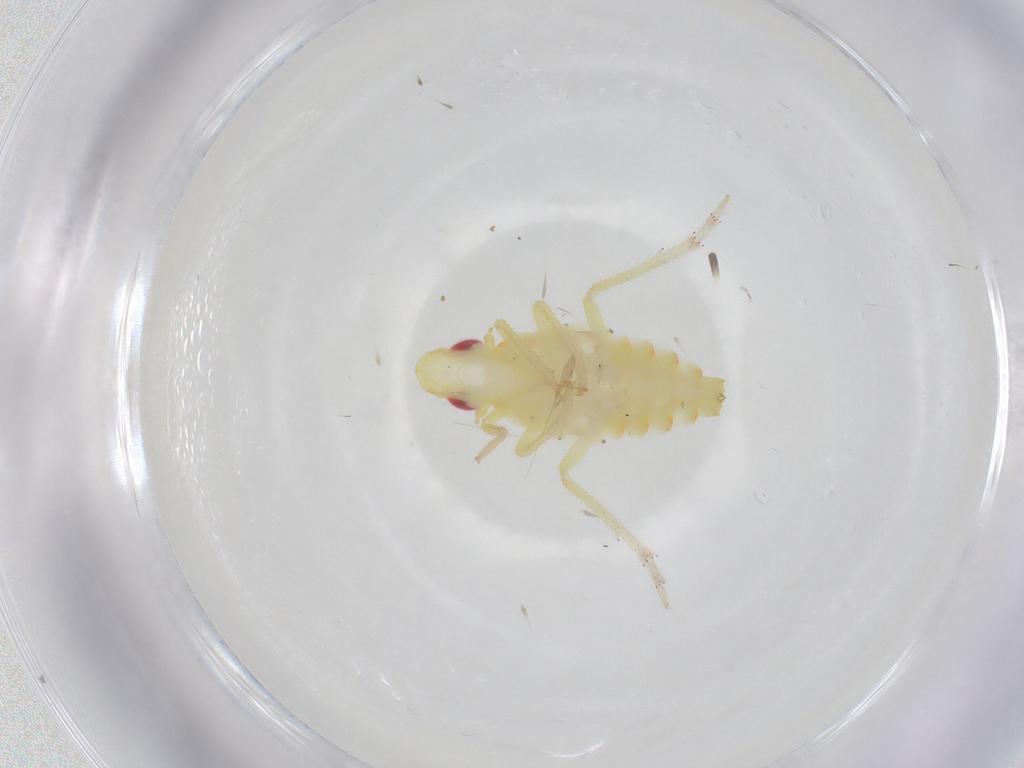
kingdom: Animalia
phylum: Arthropoda
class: Insecta
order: Hemiptera
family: Tropiduchidae
